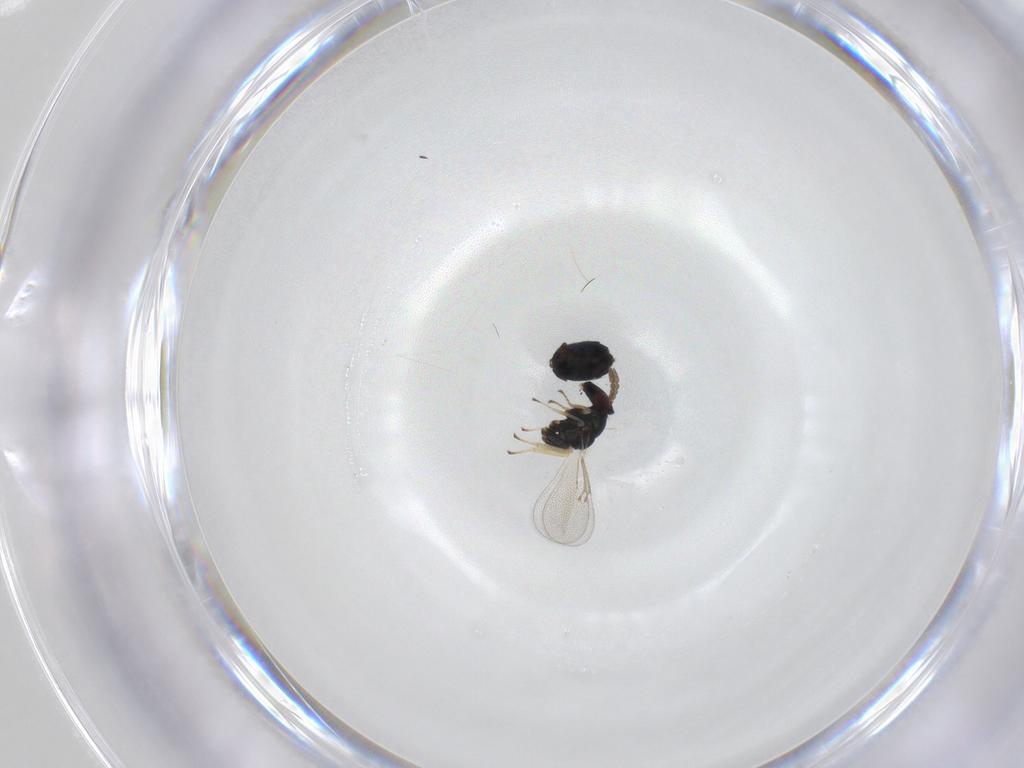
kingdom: Animalia
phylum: Arthropoda
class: Insecta
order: Hymenoptera
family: Eulophidae
